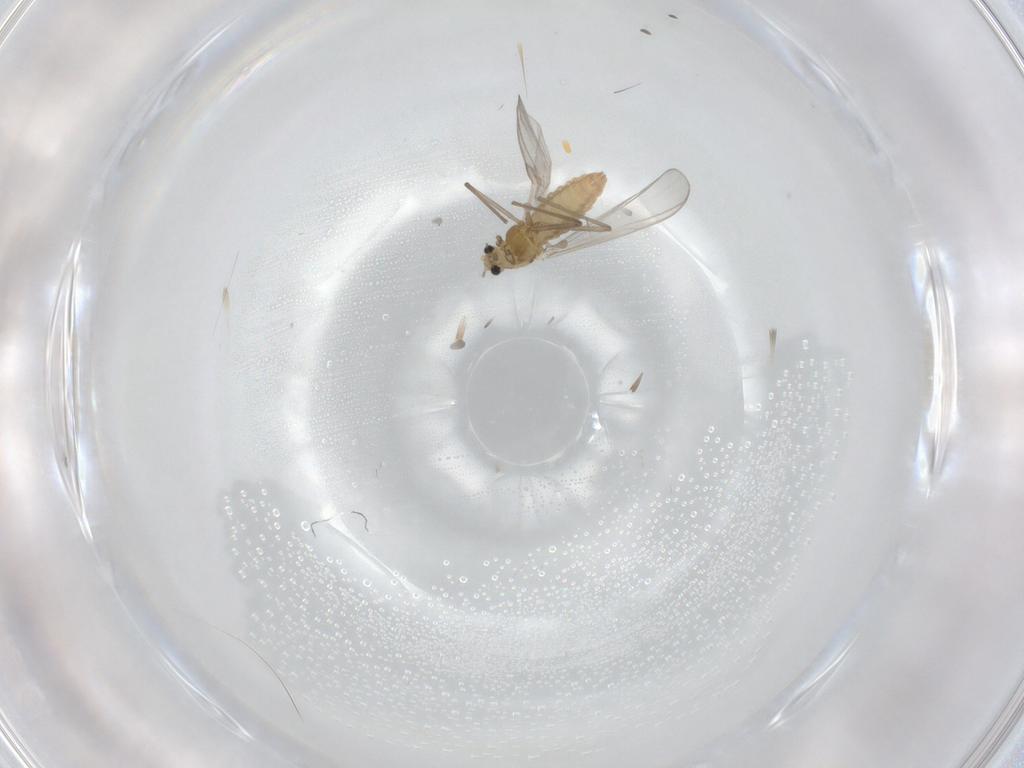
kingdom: Animalia
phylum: Arthropoda
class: Insecta
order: Diptera
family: Chironomidae
